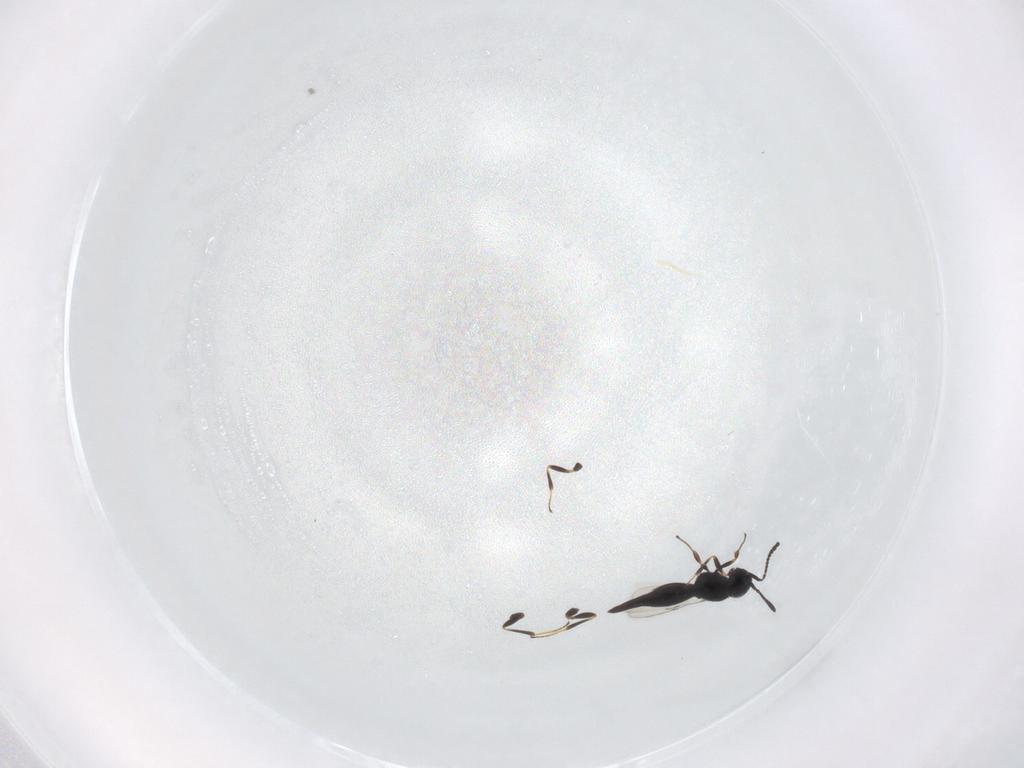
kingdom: Animalia
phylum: Arthropoda
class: Insecta
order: Hymenoptera
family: Scelionidae
